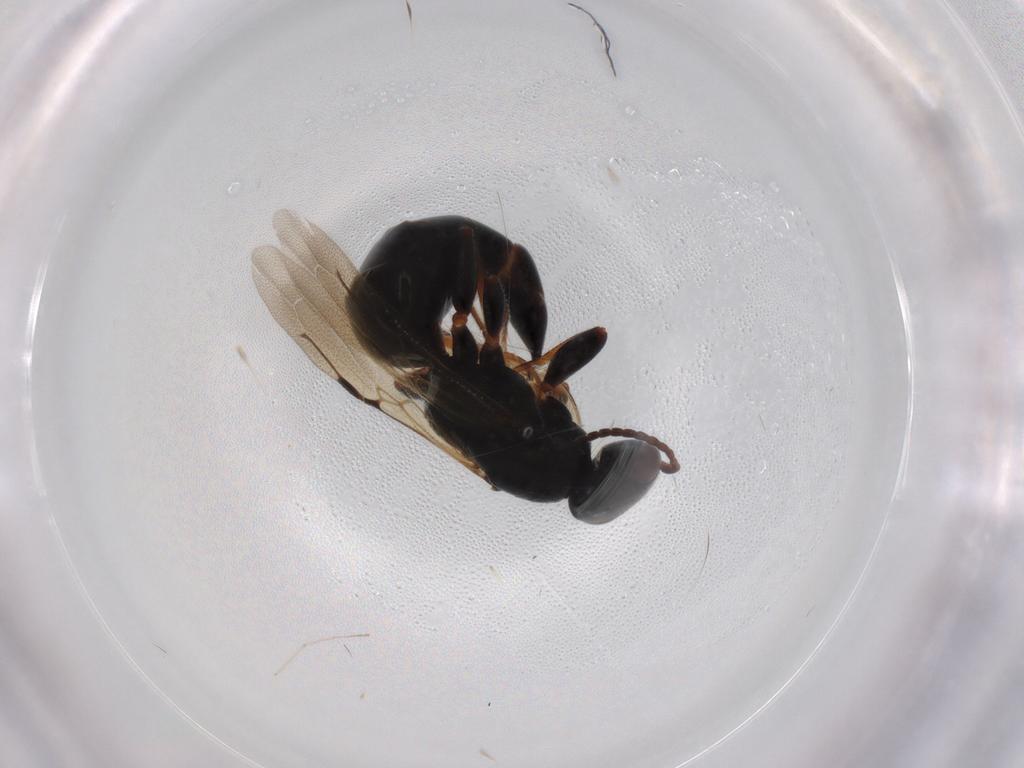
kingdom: Animalia
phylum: Arthropoda
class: Insecta
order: Hymenoptera
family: Bethylidae
